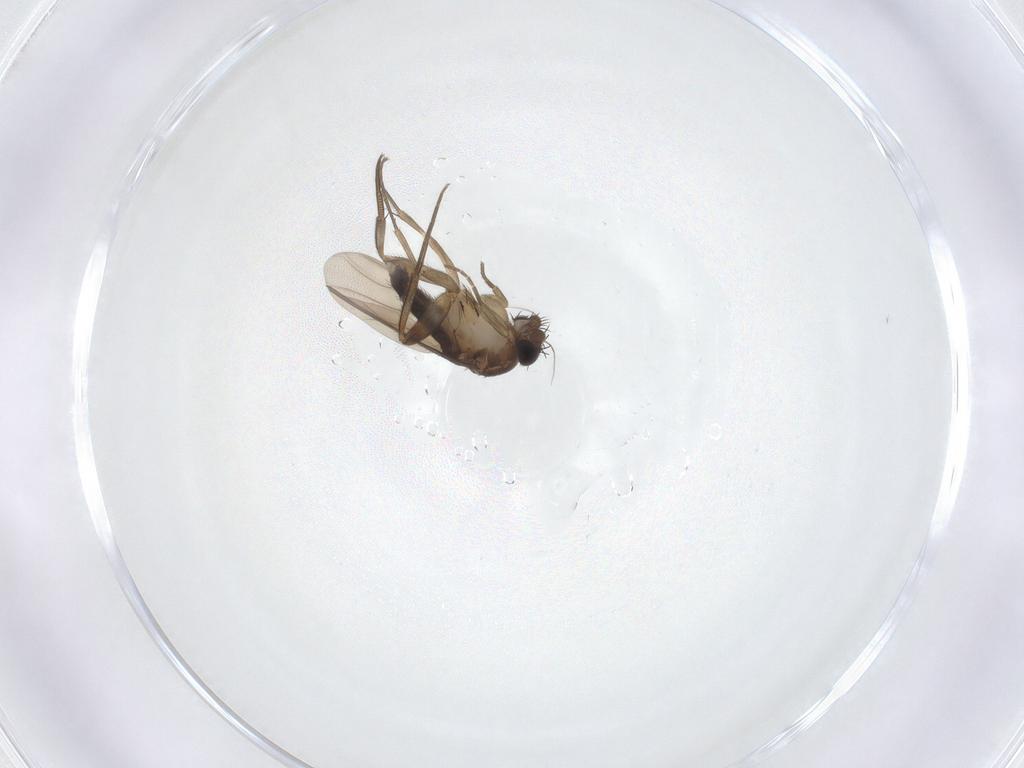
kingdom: Animalia
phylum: Arthropoda
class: Insecta
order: Diptera
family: Phoridae
